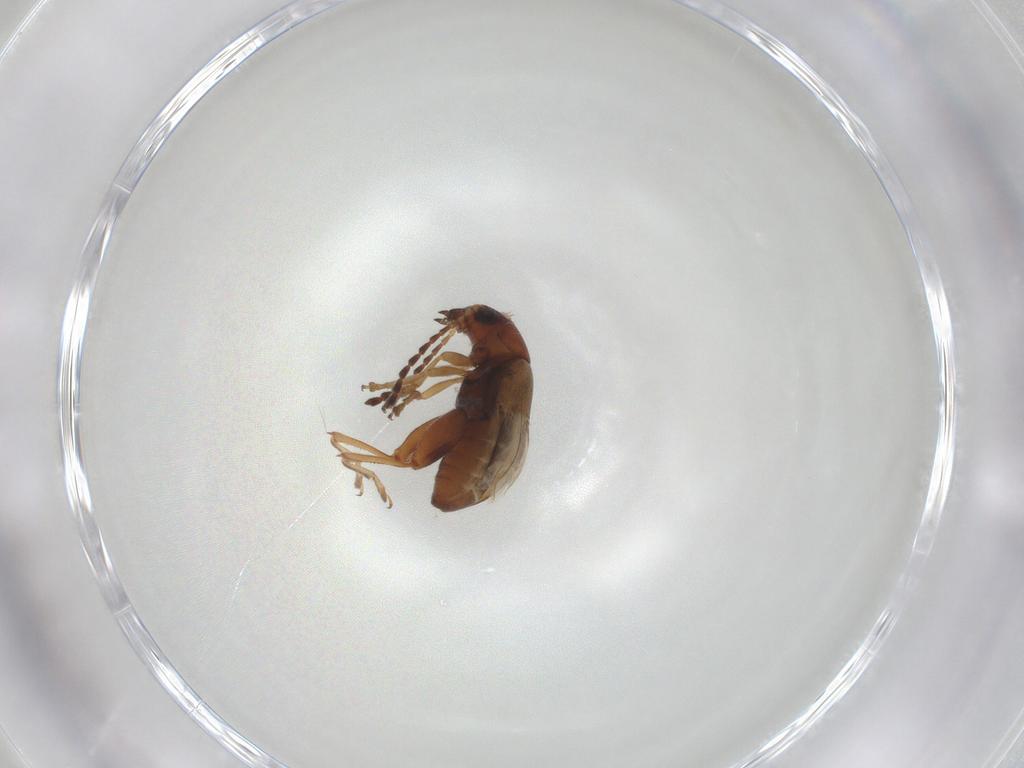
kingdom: Animalia
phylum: Arthropoda
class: Insecta
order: Coleoptera
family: Chrysomelidae
